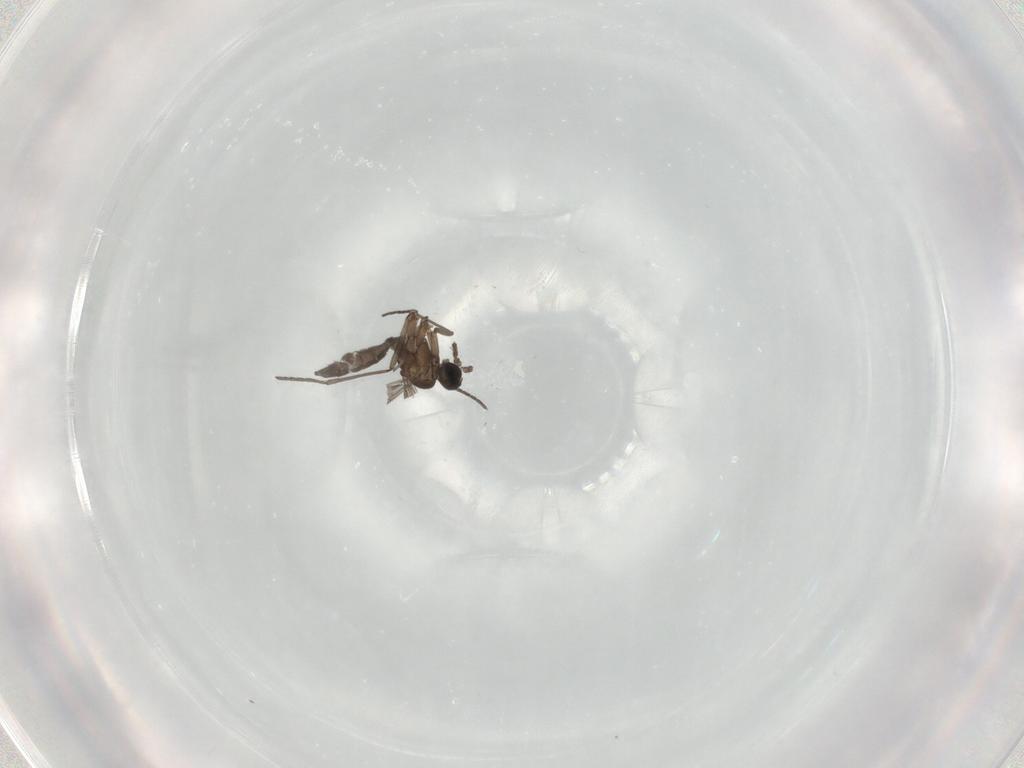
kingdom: Animalia
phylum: Arthropoda
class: Insecta
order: Diptera
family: Sciaridae
